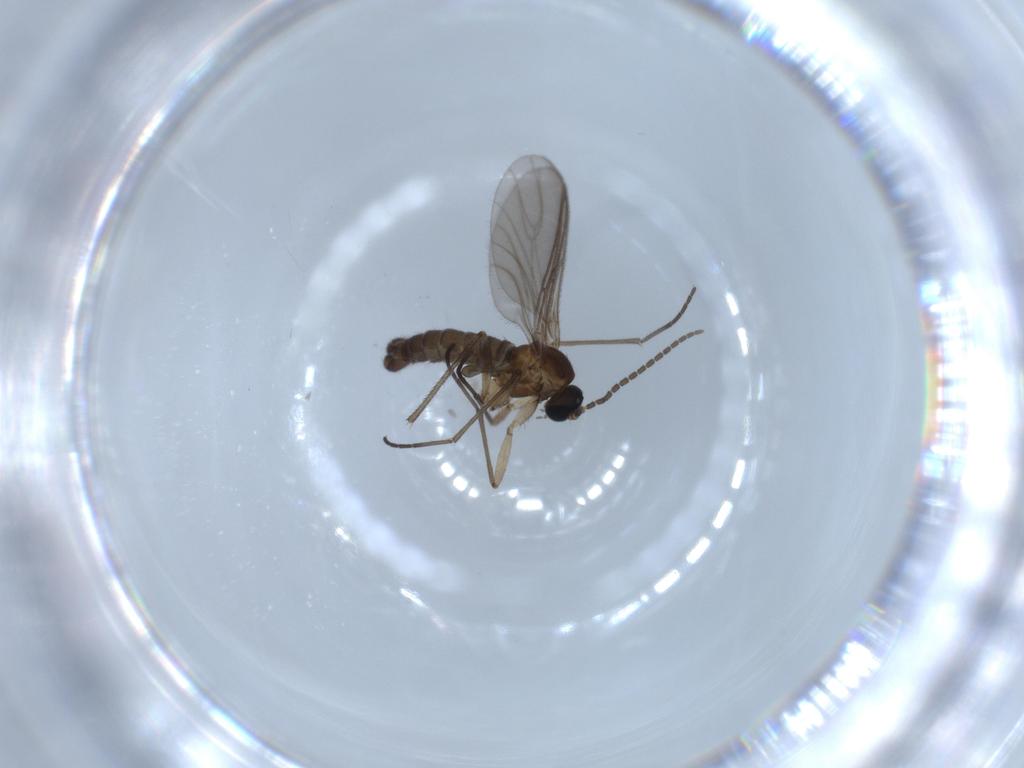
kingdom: Animalia
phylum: Arthropoda
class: Insecta
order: Diptera
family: Sciaridae
